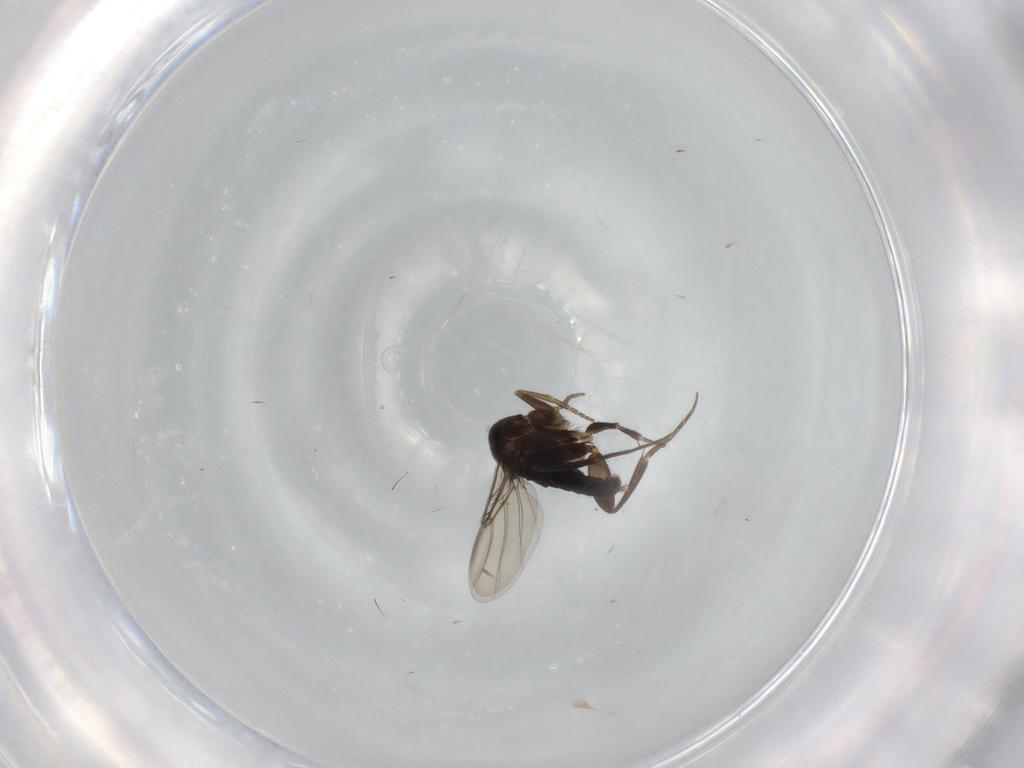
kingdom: Animalia
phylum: Arthropoda
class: Insecta
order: Diptera
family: Phoridae
